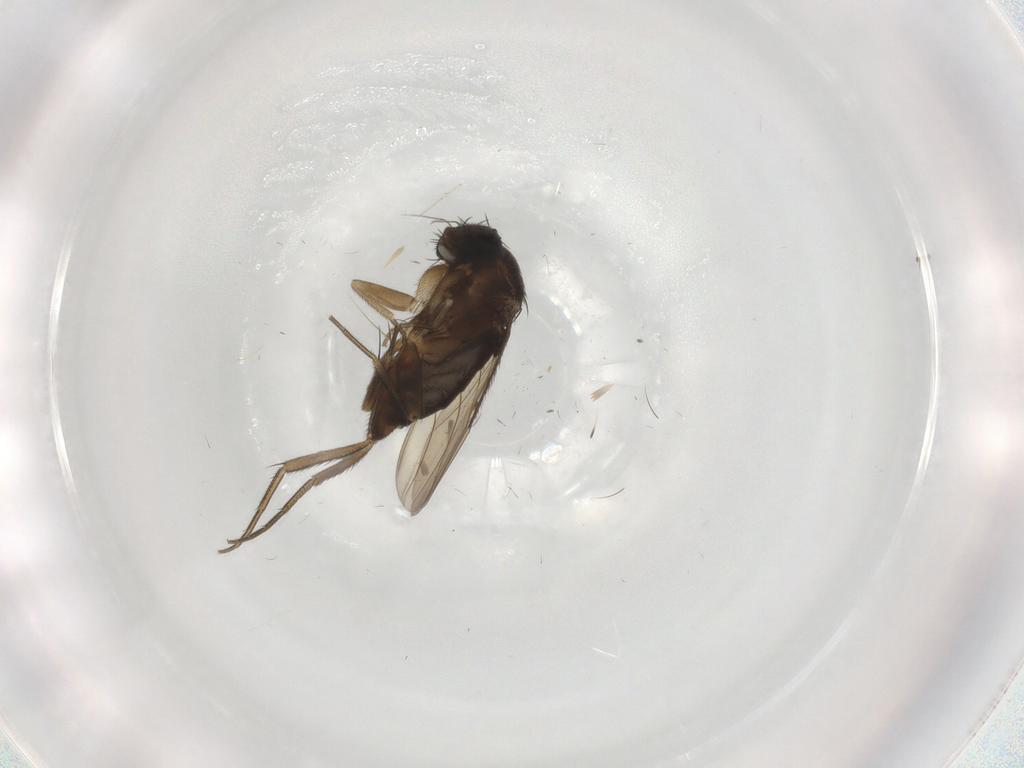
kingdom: Animalia
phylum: Arthropoda
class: Insecta
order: Diptera
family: Phoridae
